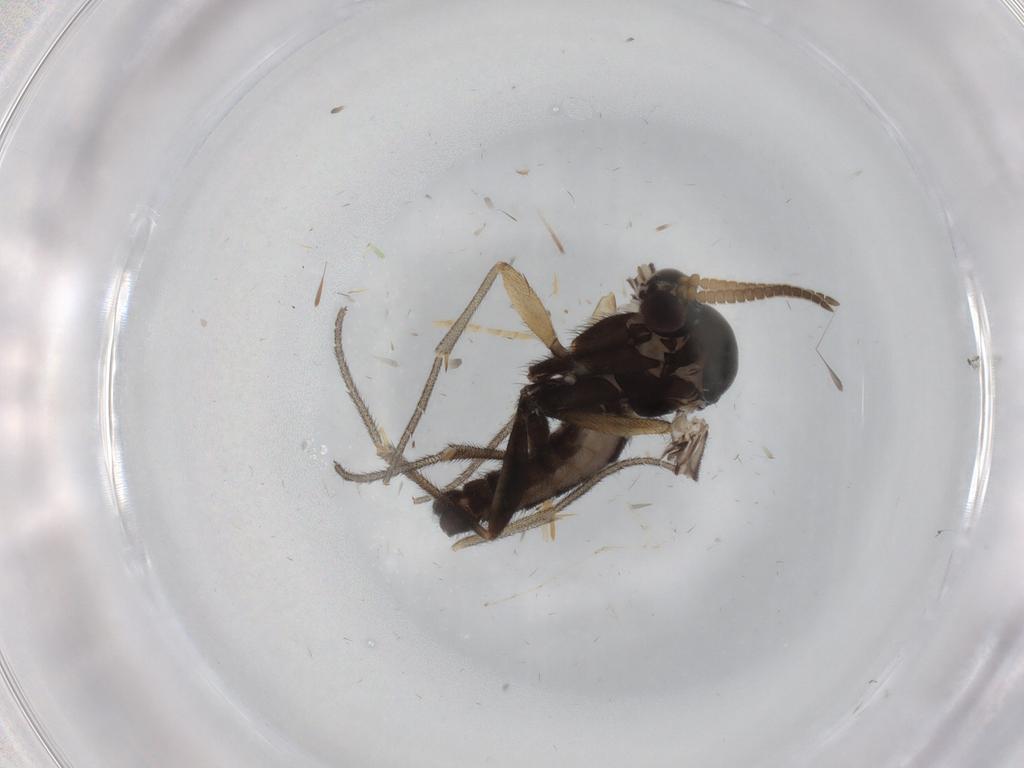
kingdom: Animalia
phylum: Arthropoda
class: Insecta
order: Diptera
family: Mycetophilidae
